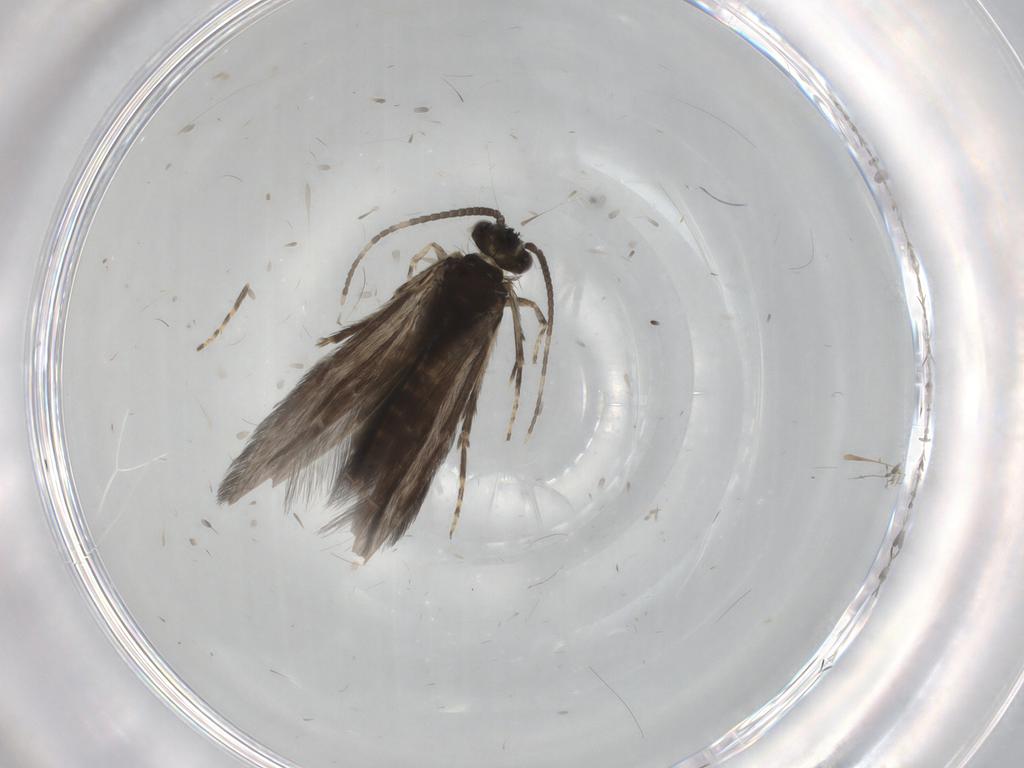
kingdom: Animalia
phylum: Arthropoda
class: Insecta
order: Trichoptera
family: Hydroptilidae
